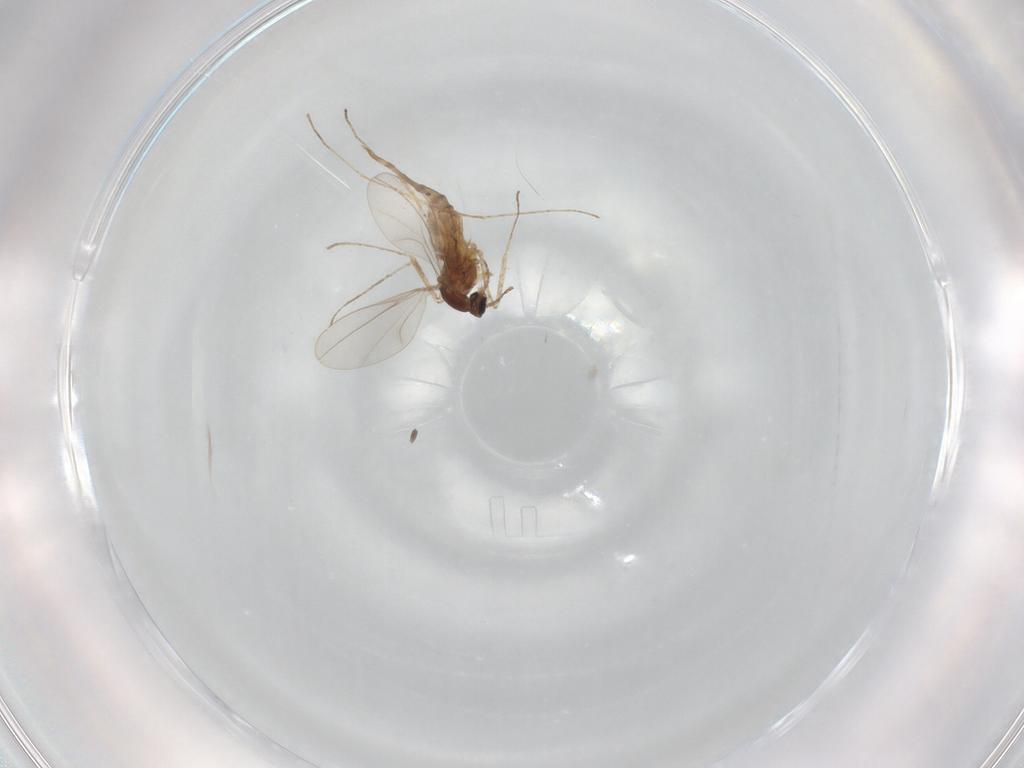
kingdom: Animalia
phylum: Arthropoda
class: Insecta
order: Diptera
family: Cecidomyiidae
